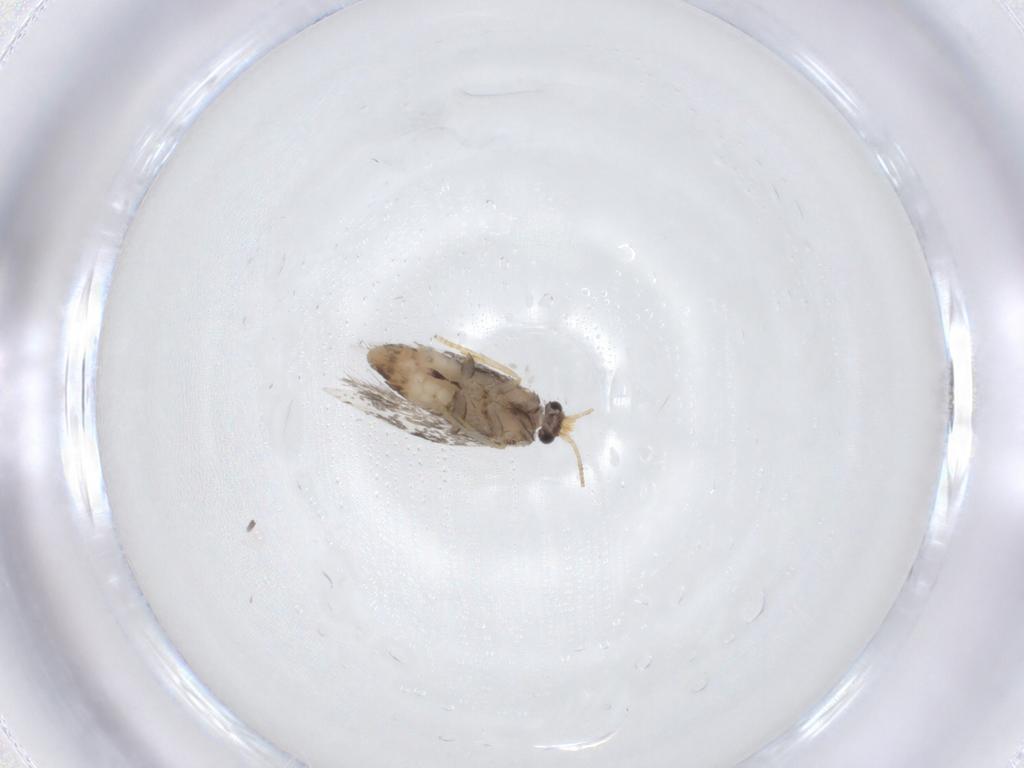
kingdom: Animalia
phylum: Arthropoda
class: Insecta
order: Lepidoptera
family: Nepticulidae
